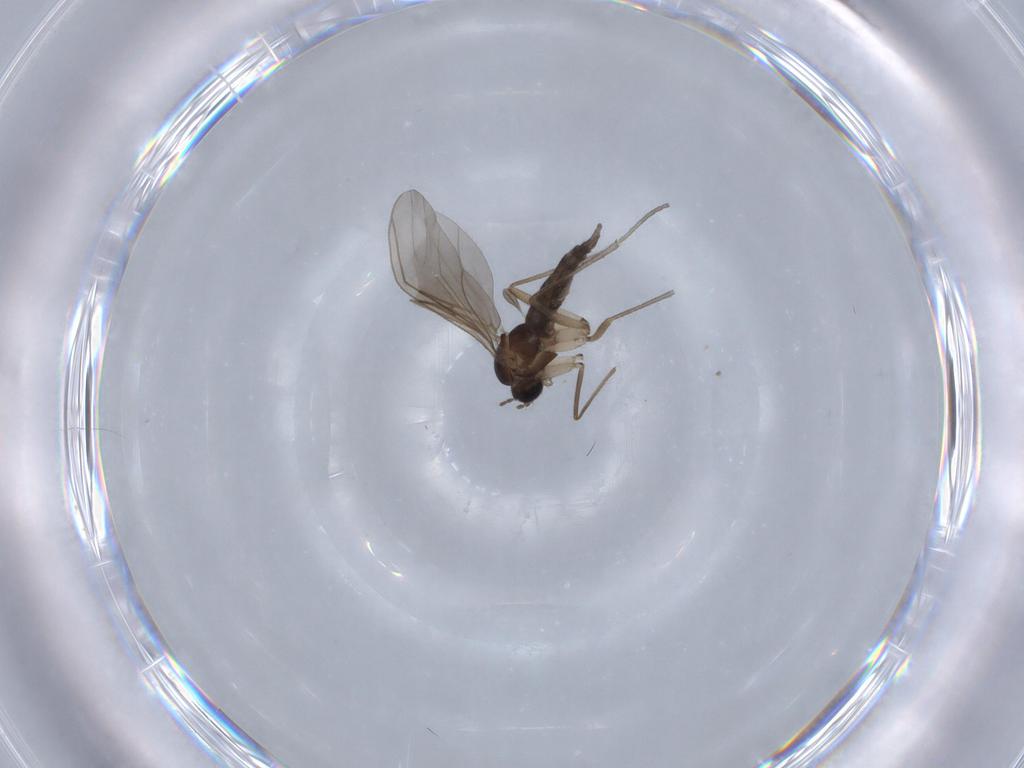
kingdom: Animalia
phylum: Arthropoda
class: Insecta
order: Diptera
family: Chironomidae
